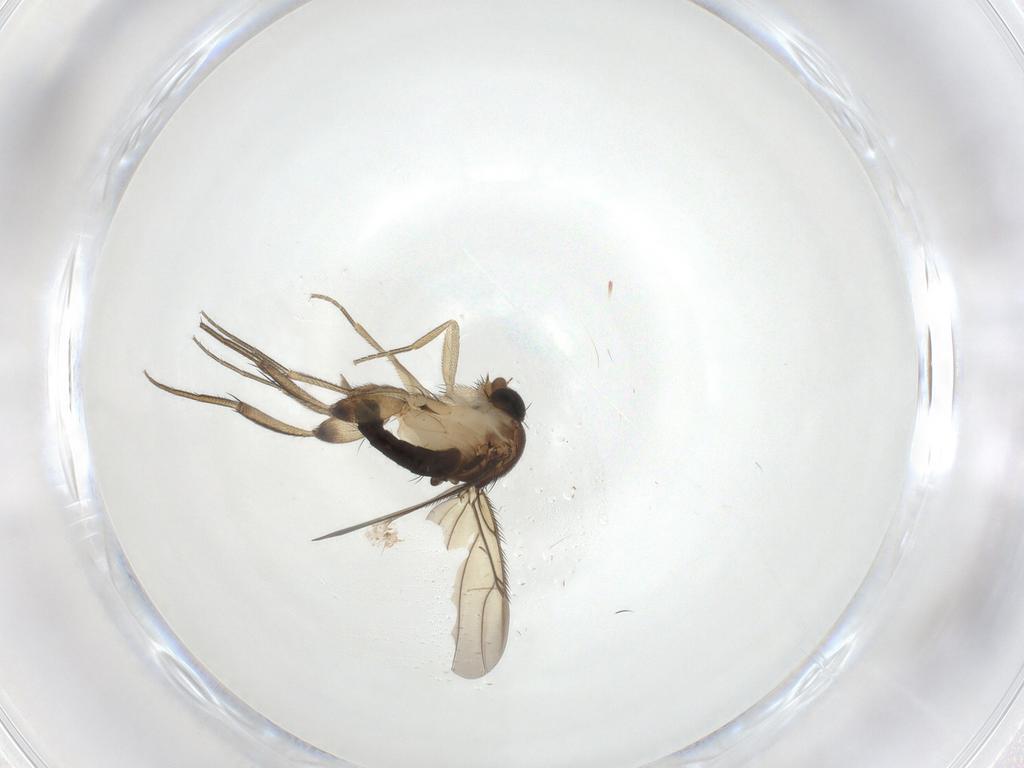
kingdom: Animalia
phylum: Arthropoda
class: Insecta
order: Diptera
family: Phoridae
